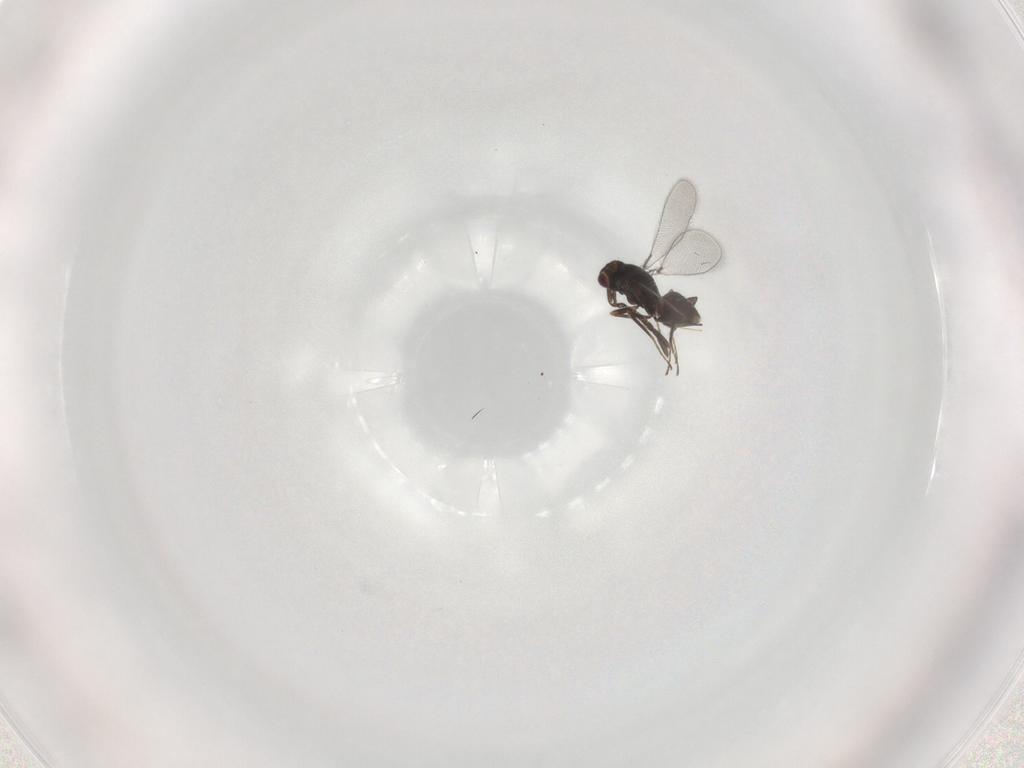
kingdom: Animalia
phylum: Arthropoda
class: Insecta
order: Hymenoptera
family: Mymaridae
